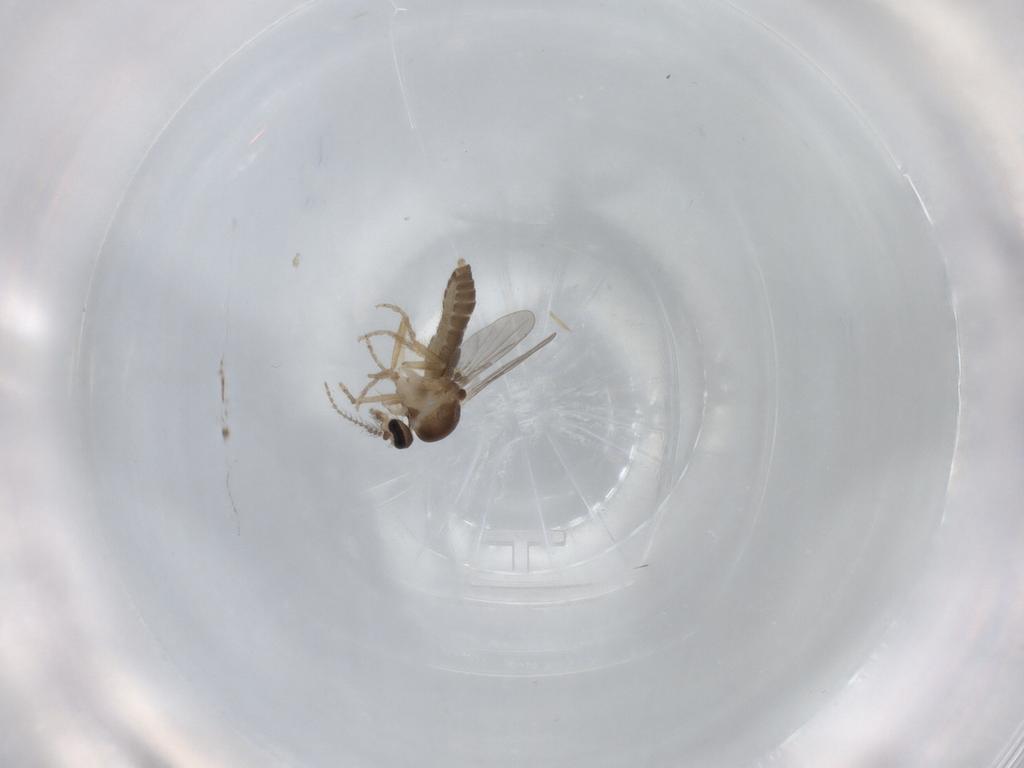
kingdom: Animalia
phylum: Arthropoda
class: Insecta
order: Diptera
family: Ceratopogonidae
